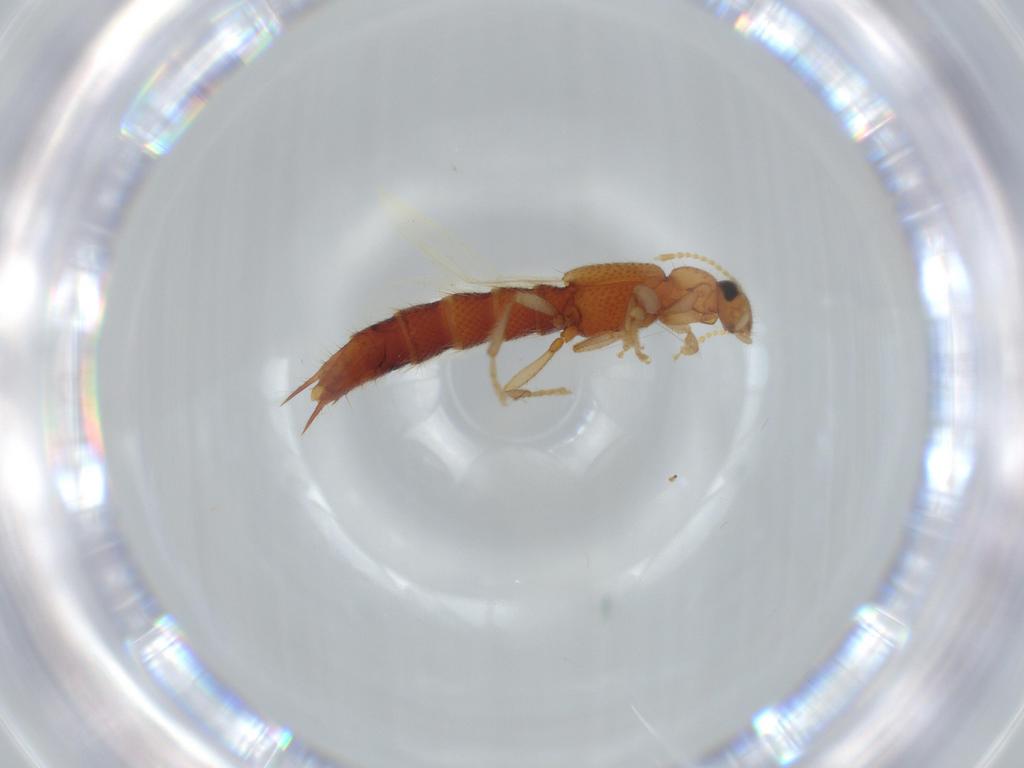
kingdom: Animalia
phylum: Arthropoda
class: Insecta
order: Coleoptera
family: Staphylinidae
